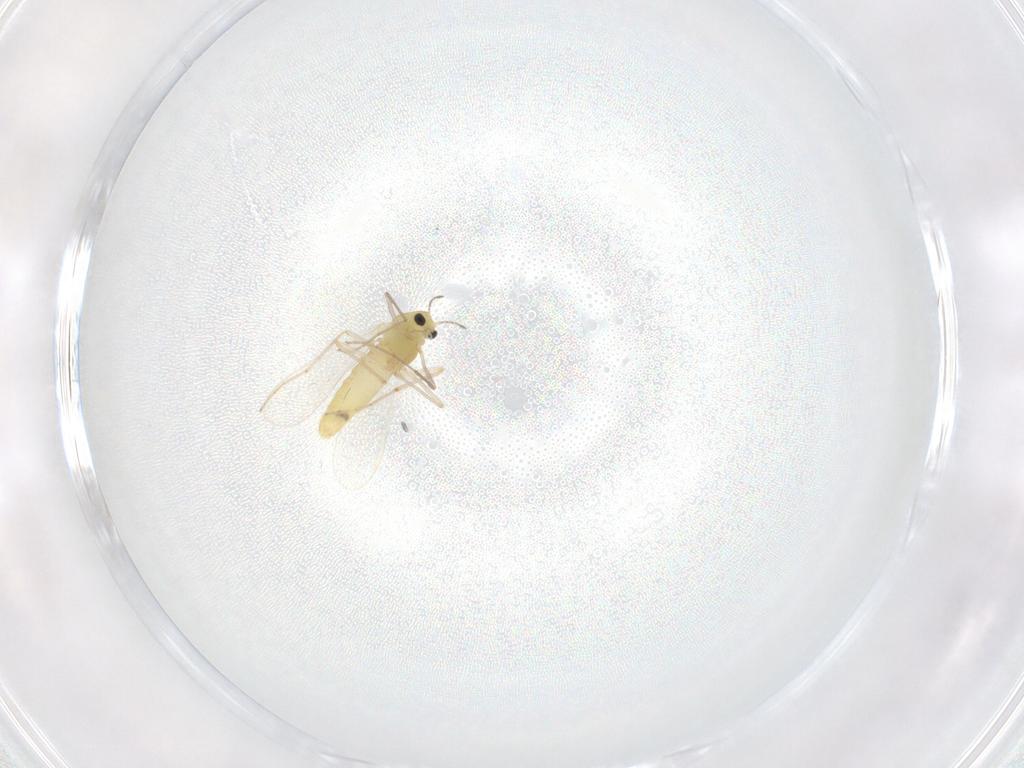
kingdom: Animalia
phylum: Arthropoda
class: Insecta
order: Diptera
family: Chironomidae
